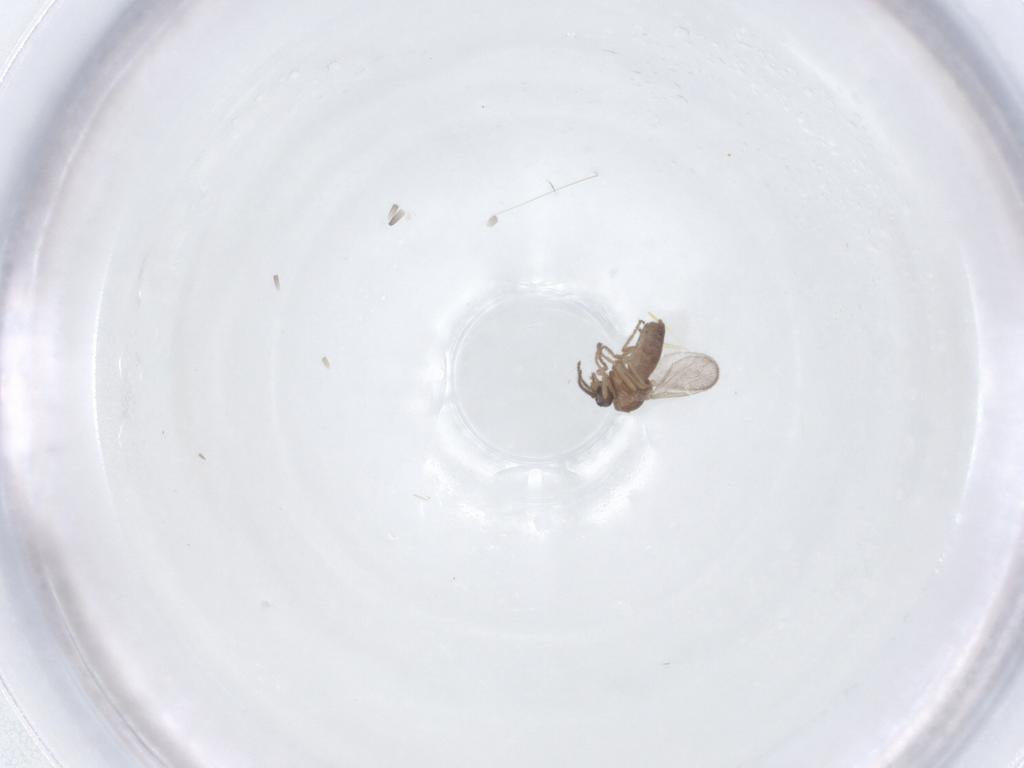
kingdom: Animalia
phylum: Arthropoda
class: Insecta
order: Diptera
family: Ceratopogonidae
